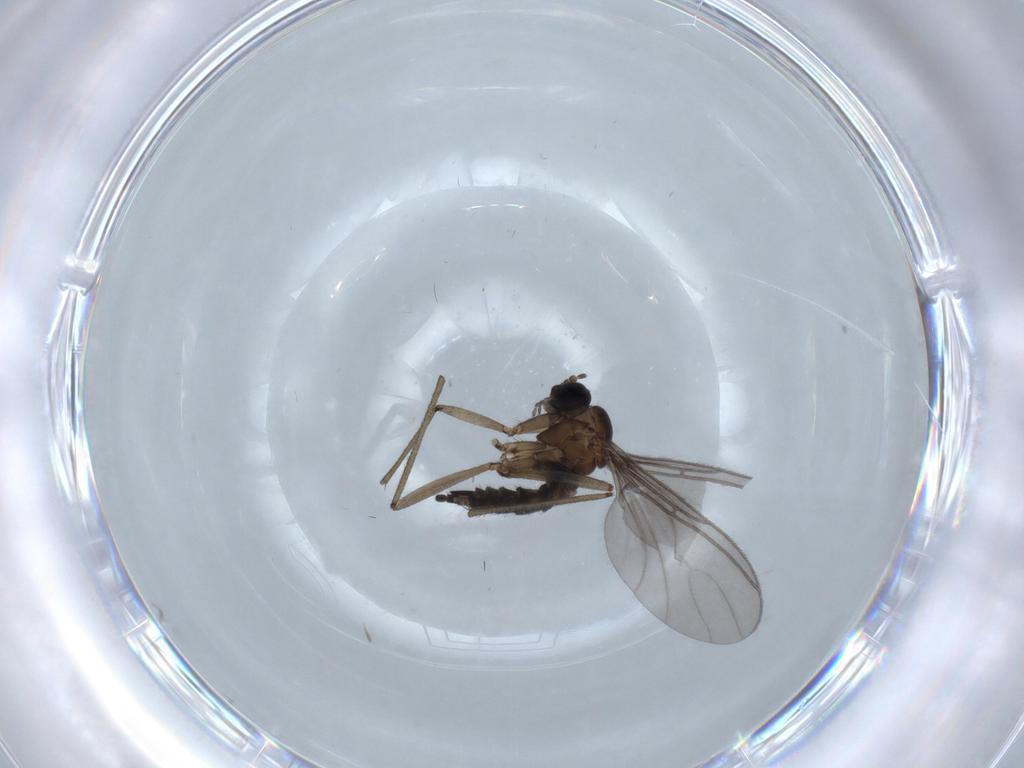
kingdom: Animalia
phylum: Arthropoda
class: Insecta
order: Diptera
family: Sciaridae
